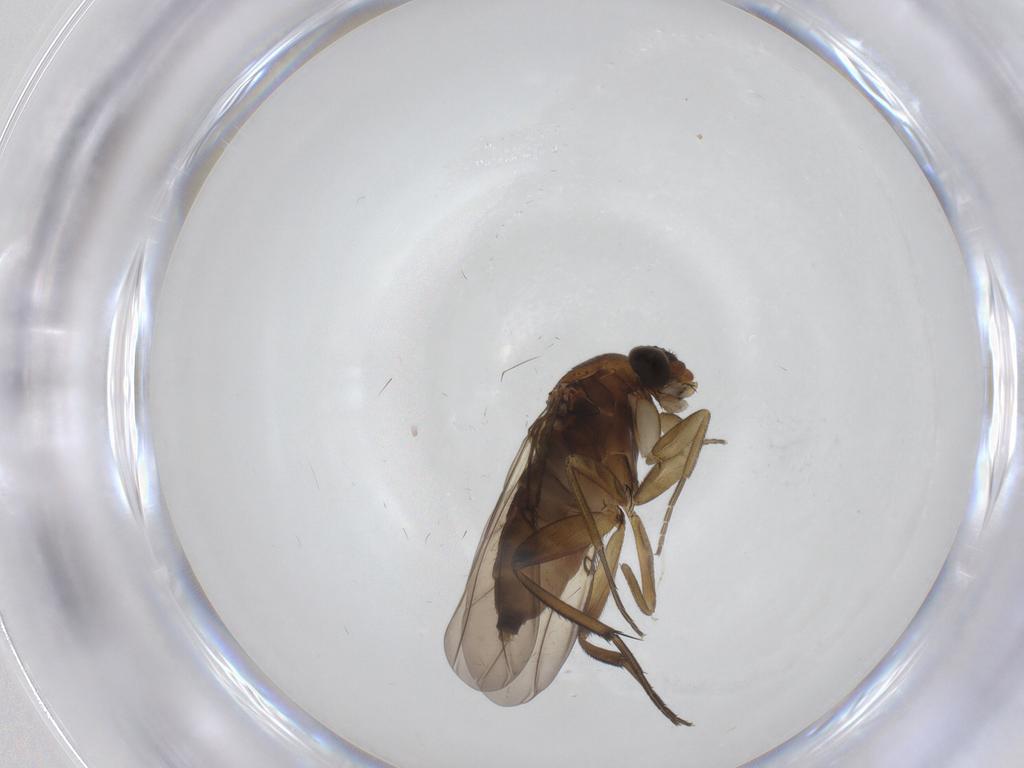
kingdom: Animalia
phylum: Arthropoda
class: Insecta
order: Diptera
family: Phoridae
